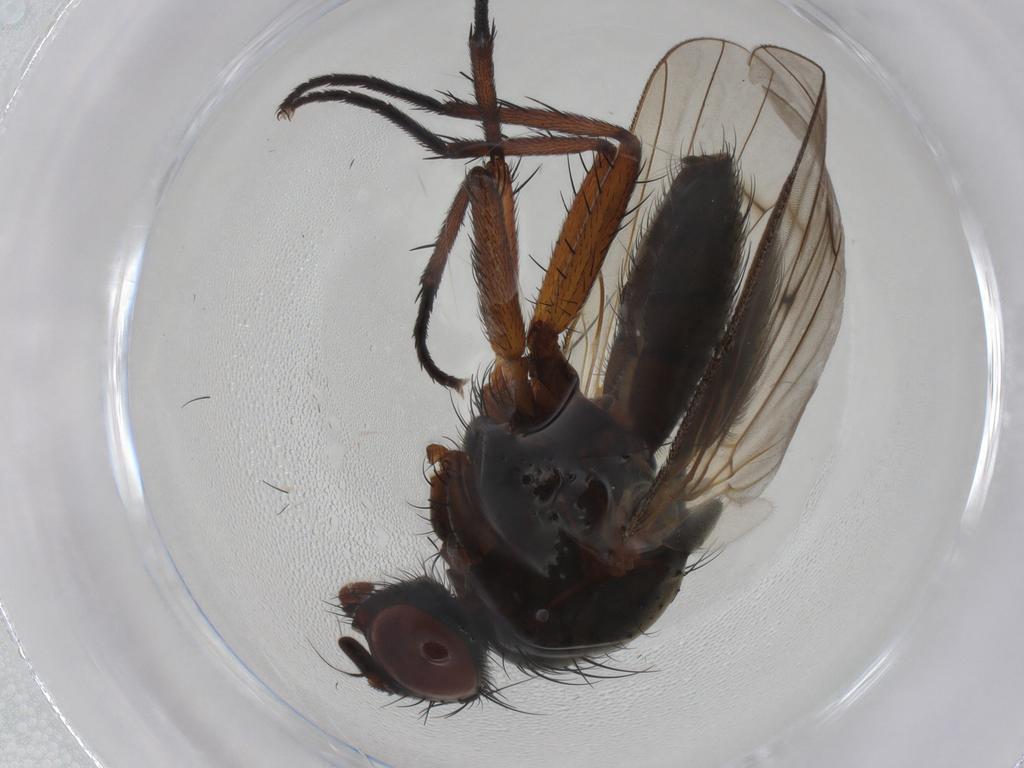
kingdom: Animalia
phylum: Arthropoda
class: Insecta
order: Diptera
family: Anthomyiidae
